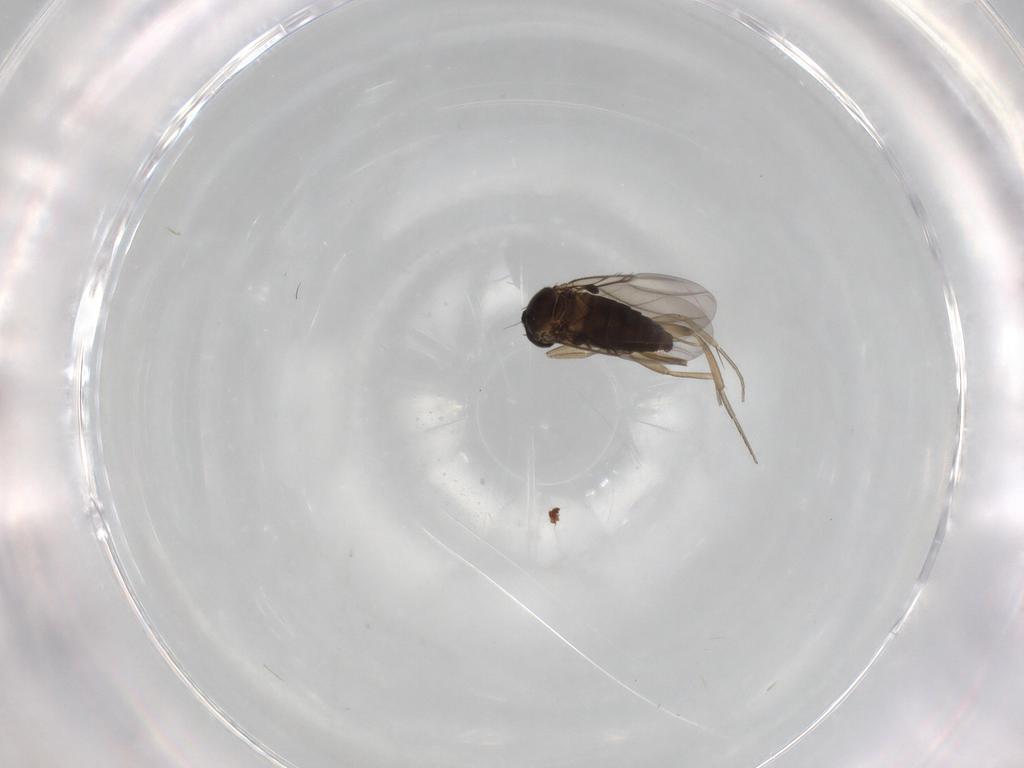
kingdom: Animalia
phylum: Arthropoda
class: Insecta
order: Diptera
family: Phoridae
